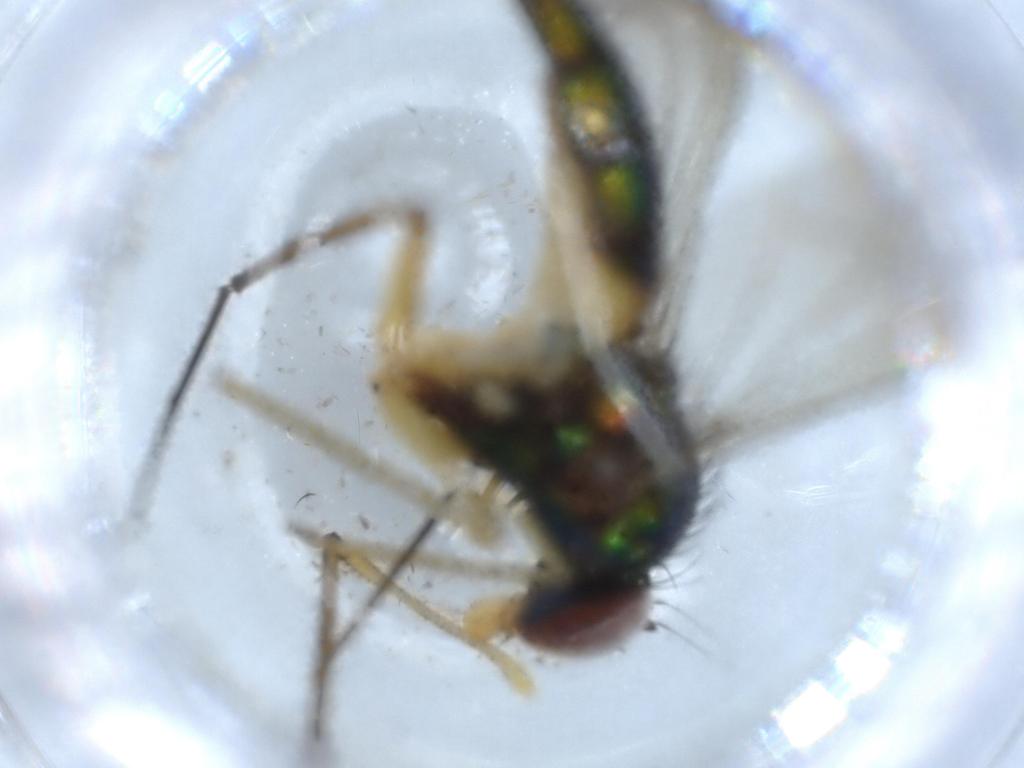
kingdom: Animalia
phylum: Arthropoda
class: Insecta
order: Diptera
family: Dolichopodidae
